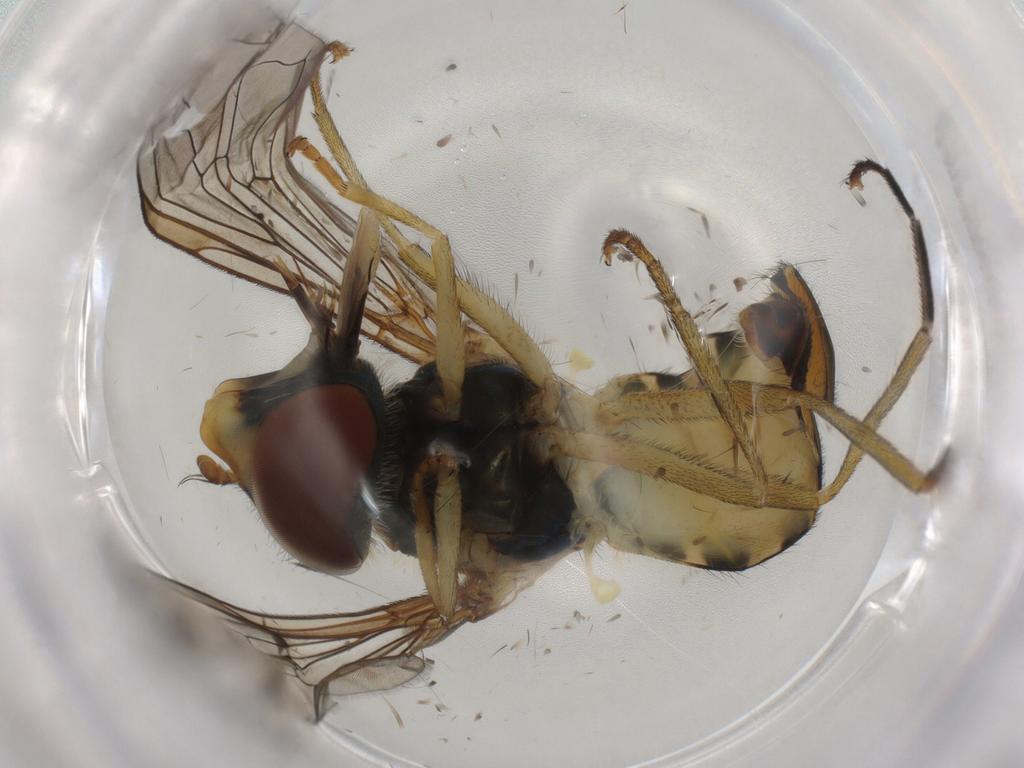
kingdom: Animalia
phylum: Arthropoda
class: Insecta
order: Diptera
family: Syrphidae
